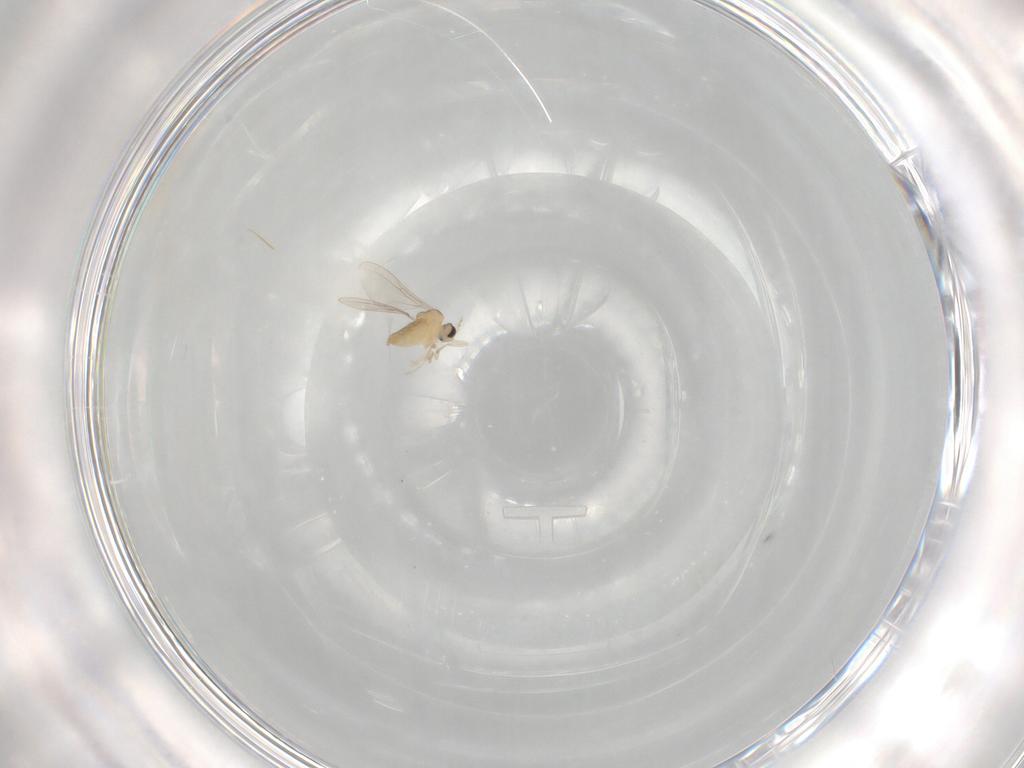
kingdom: Animalia
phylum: Arthropoda
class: Insecta
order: Diptera
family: Cecidomyiidae
